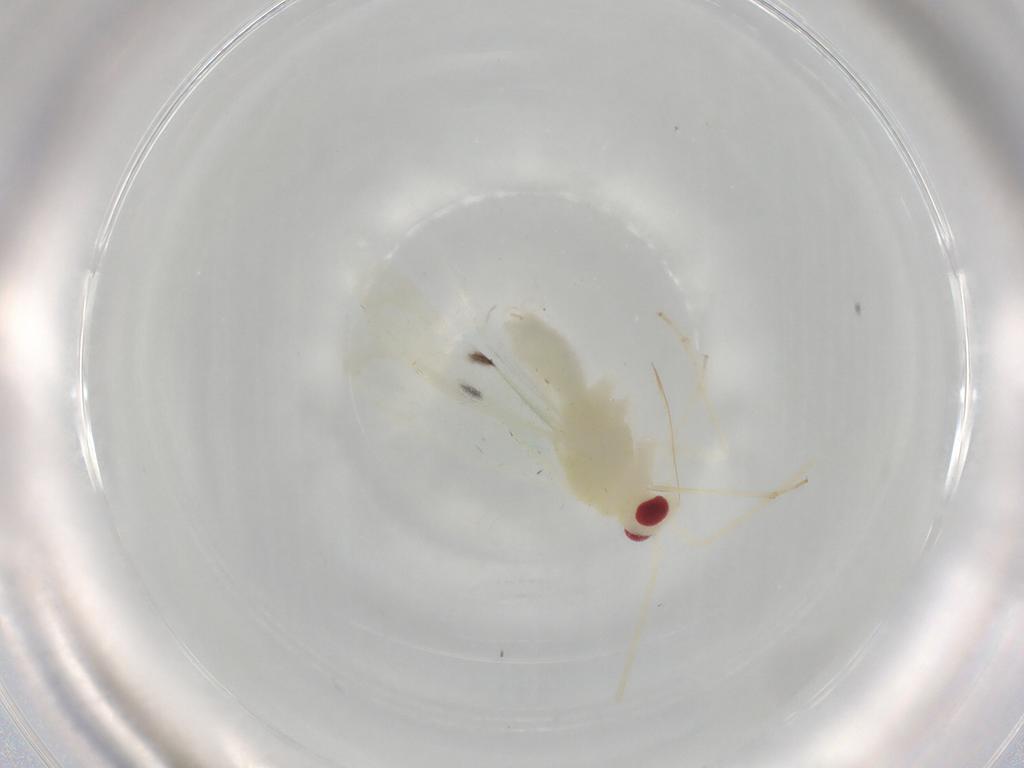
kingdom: Animalia
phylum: Arthropoda
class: Insecta
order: Hemiptera
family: Miridae
